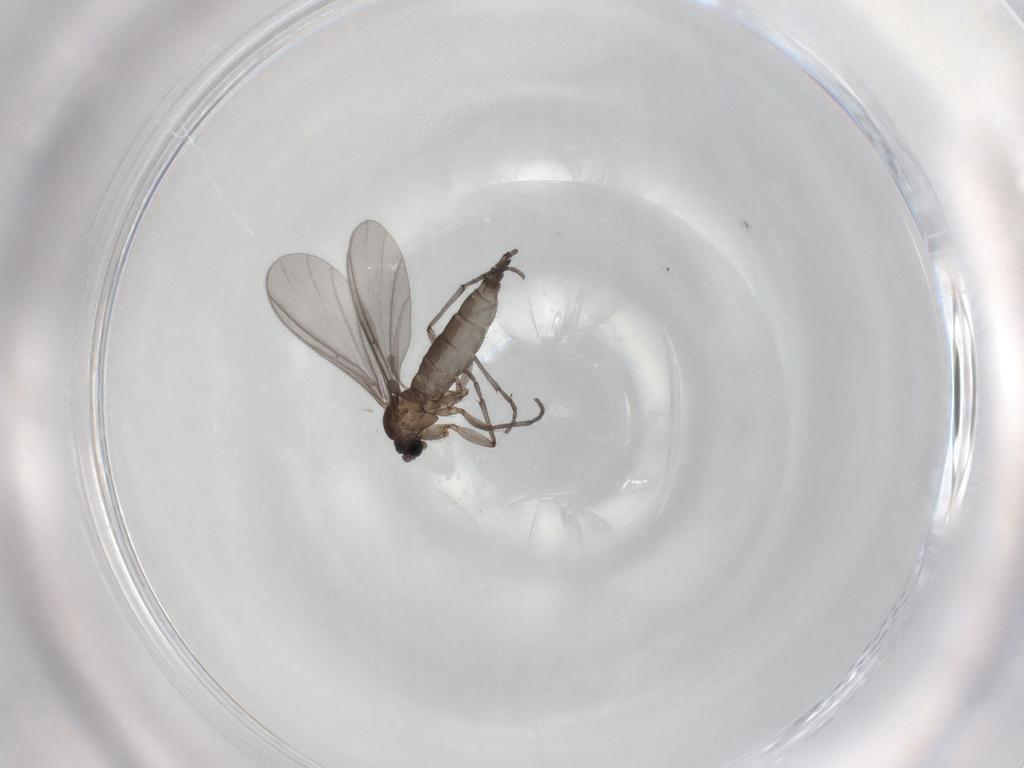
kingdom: Animalia
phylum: Arthropoda
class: Insecta
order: Diptera
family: Sciaridae
